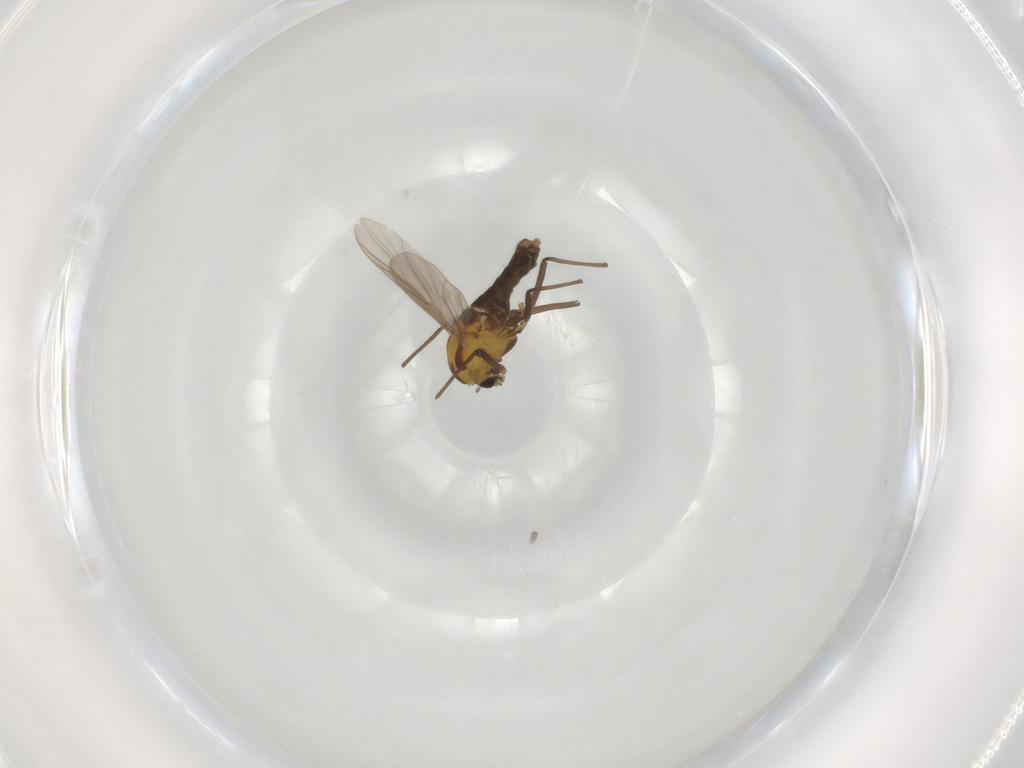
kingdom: Animalia
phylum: Arthropoda
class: Insecta
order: Diptera
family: Chironomidae
